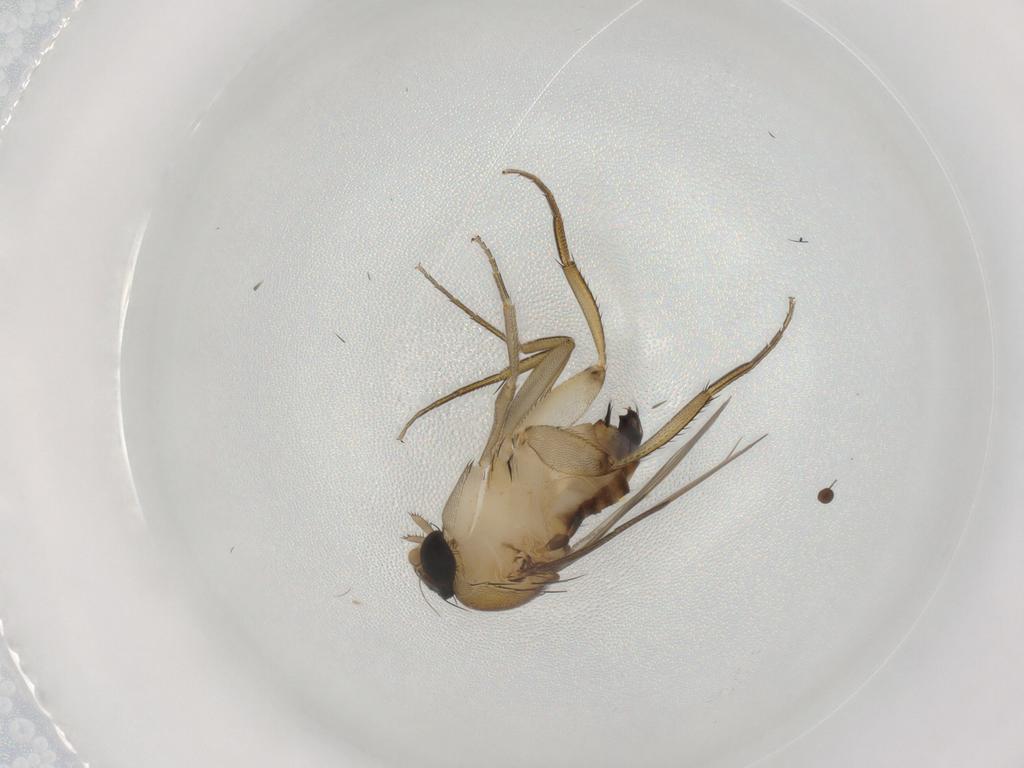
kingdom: Animalia
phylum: Arthropoda
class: Insecta
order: Diptera
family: Phoridae
